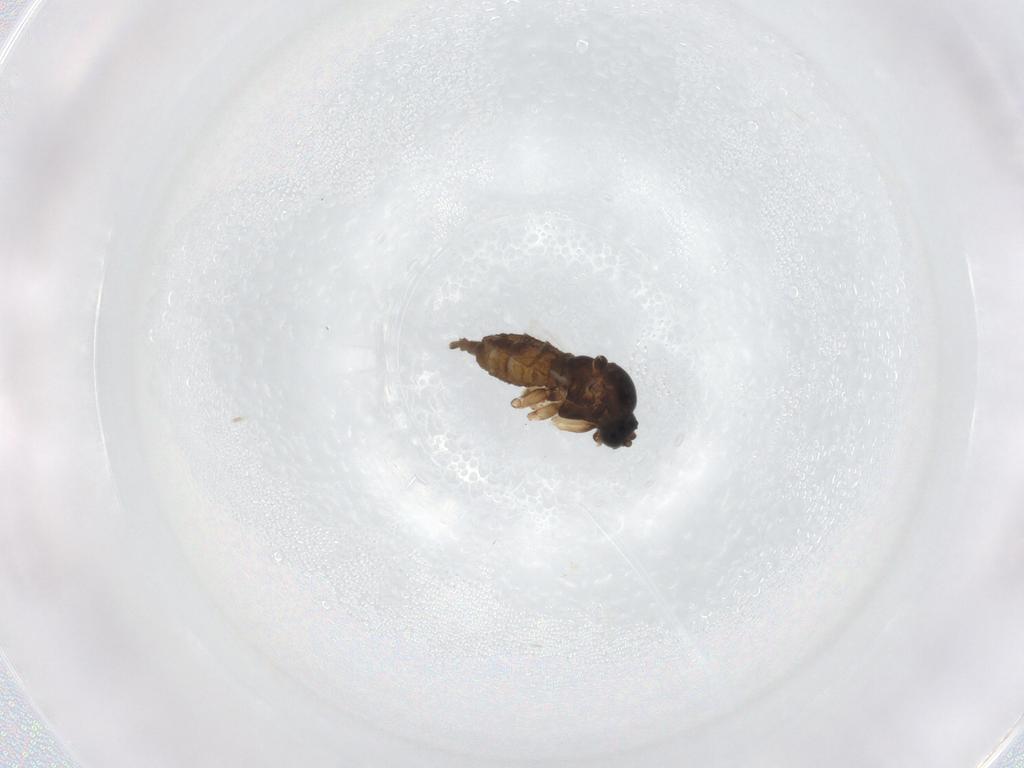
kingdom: Animalia
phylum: Arthropoda
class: Insecta
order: Diptera
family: Sciaridae
